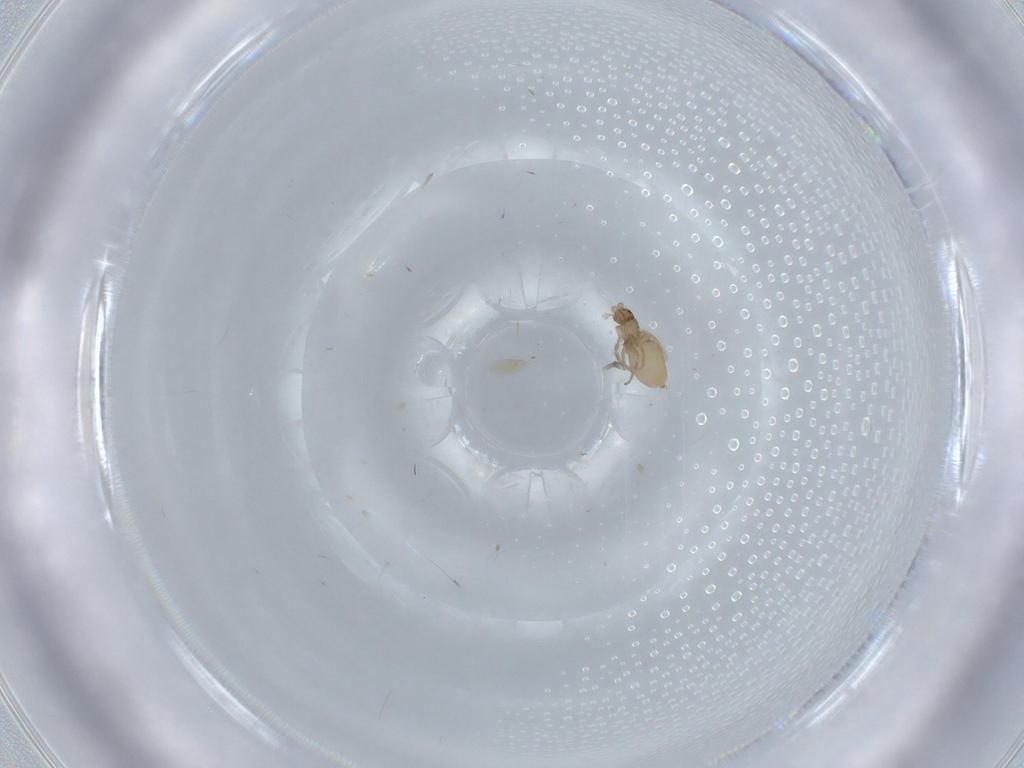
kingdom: Animalia
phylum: Arthropoda
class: Insecta
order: Diptera
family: Phoridae
